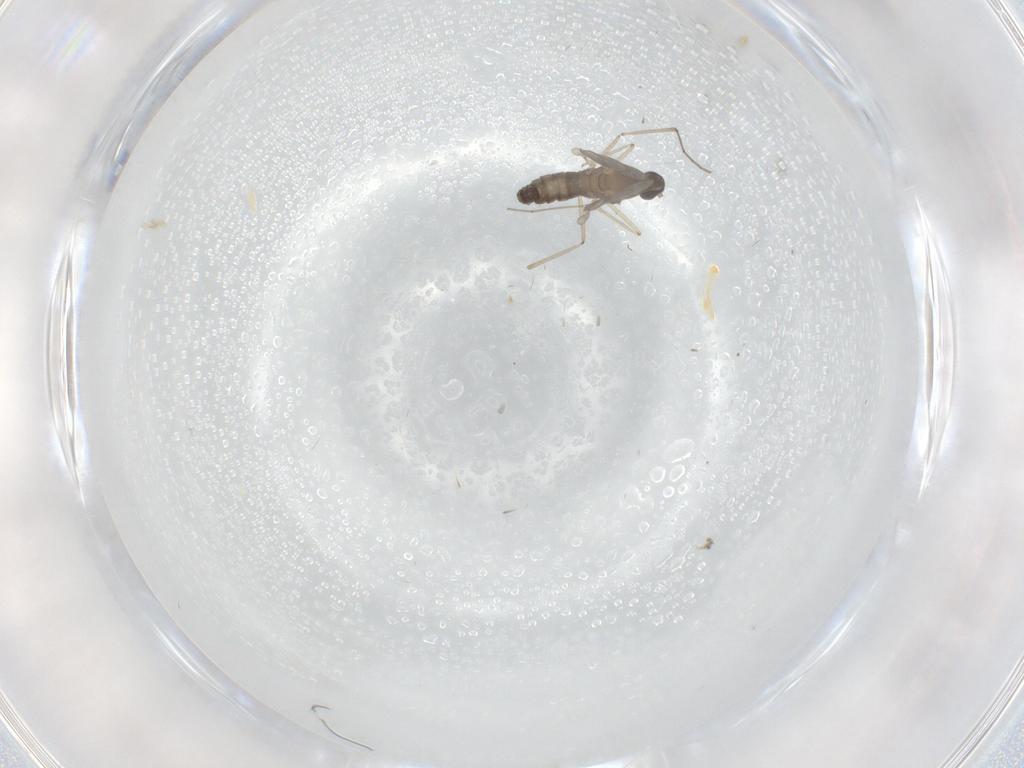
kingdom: Animalia
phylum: Arthropoda
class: Insecta
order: Diptera
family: Cecidomyiidae
